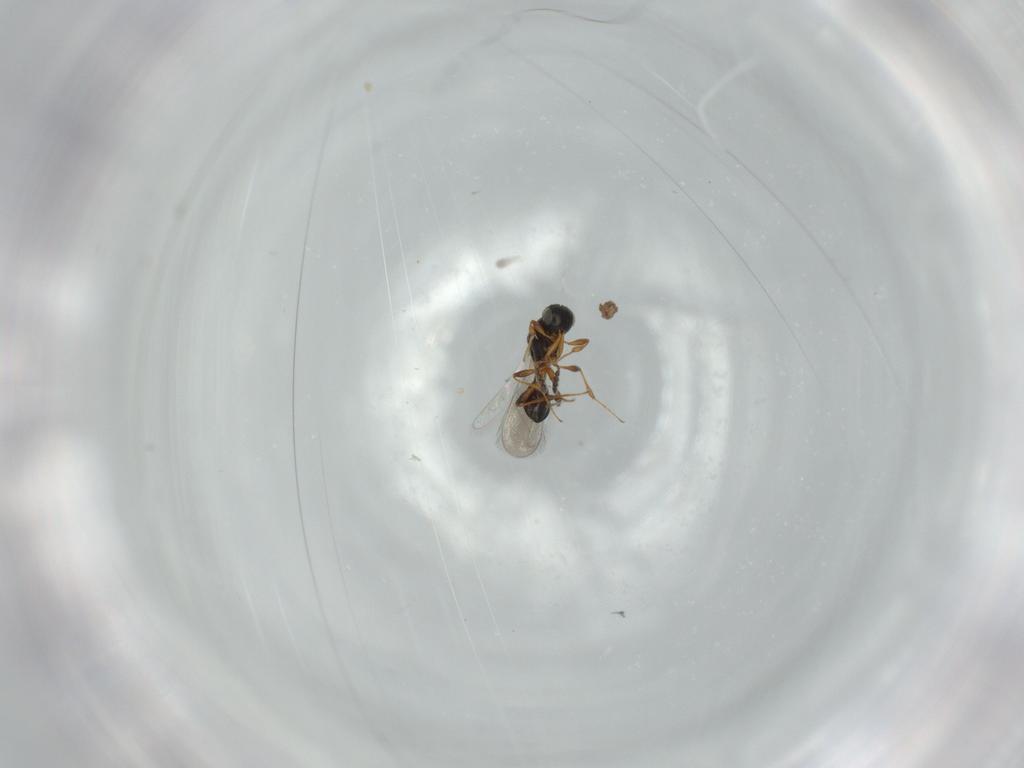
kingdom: Animalia
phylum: Arthropoda
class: Insecta
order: Hymenoptera
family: Platygastridae
